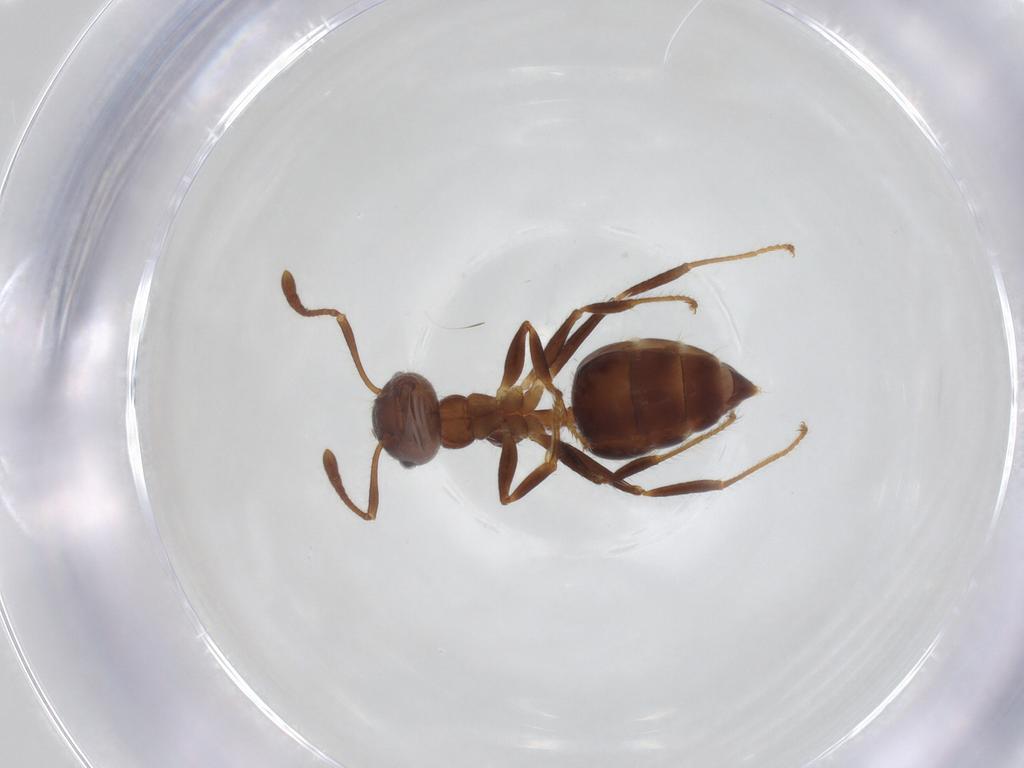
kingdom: Animalia
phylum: Arthropoda
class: Insecta
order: Hymenoptera
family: Formicidae
